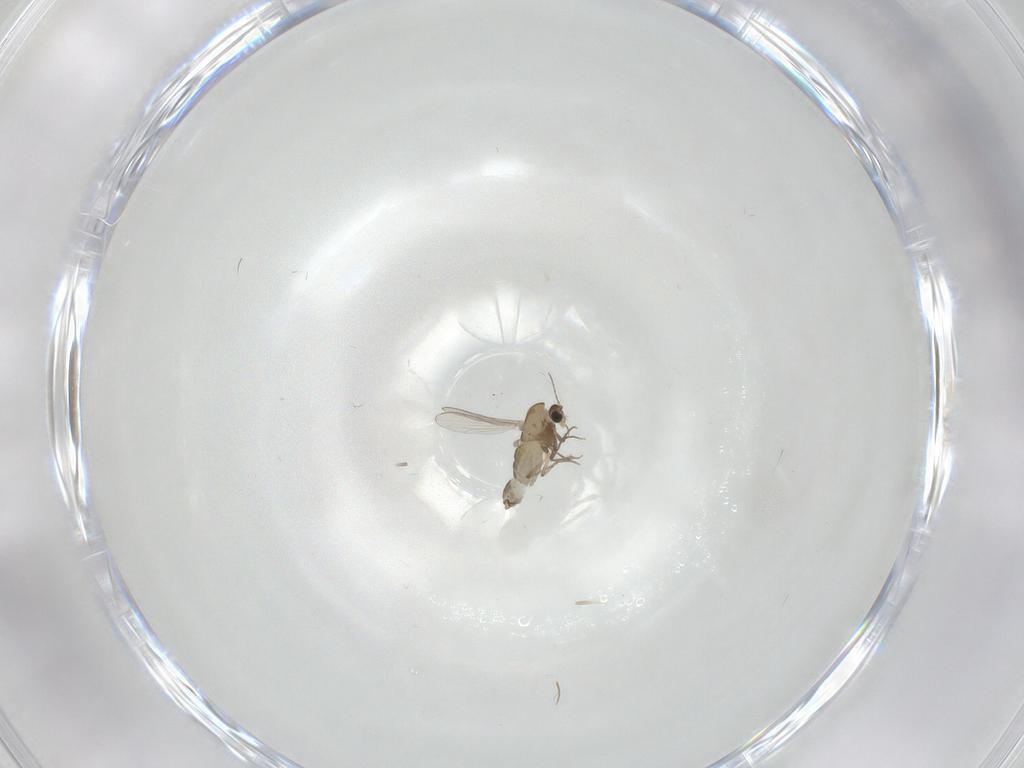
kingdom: Animalia
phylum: Arthropoda
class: Insecta
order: Diptera
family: Chironomidae
